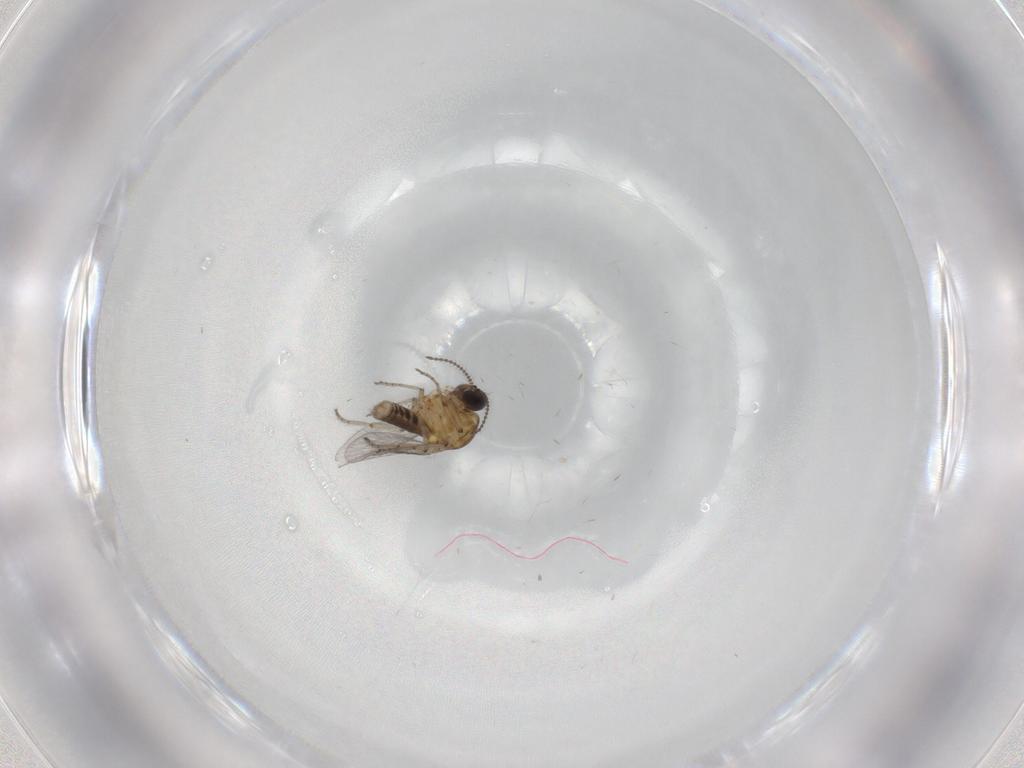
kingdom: Animalia
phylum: Arthropoda
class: Insecta
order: Diptera
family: Ceratopogonidae
